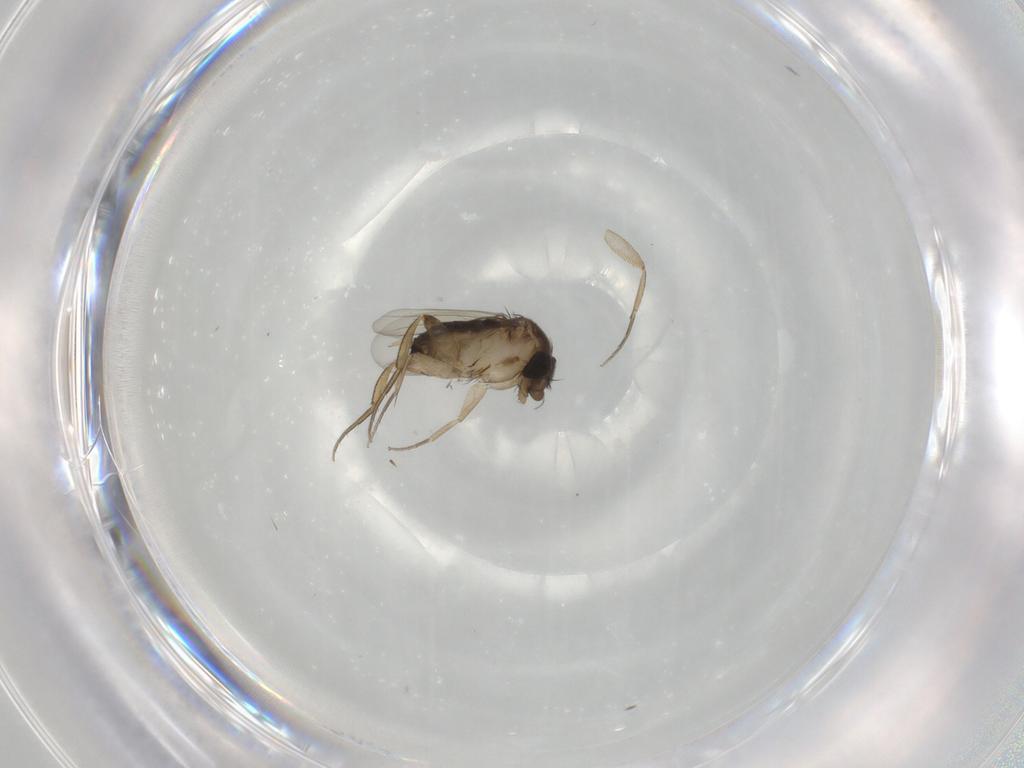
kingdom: Animalia
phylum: Arthropoda
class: Insecta
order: Diptera
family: Phoridae
